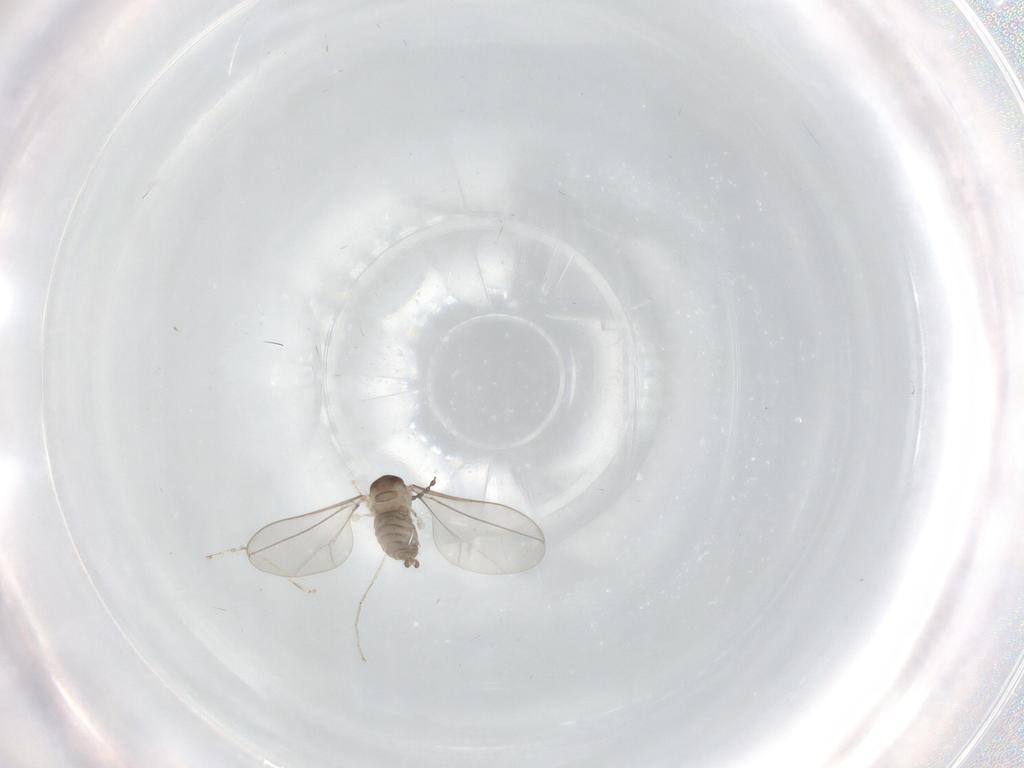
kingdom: Animalia
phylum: Arthropoda
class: Insecta
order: Diptera
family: Cecidomyiidae
